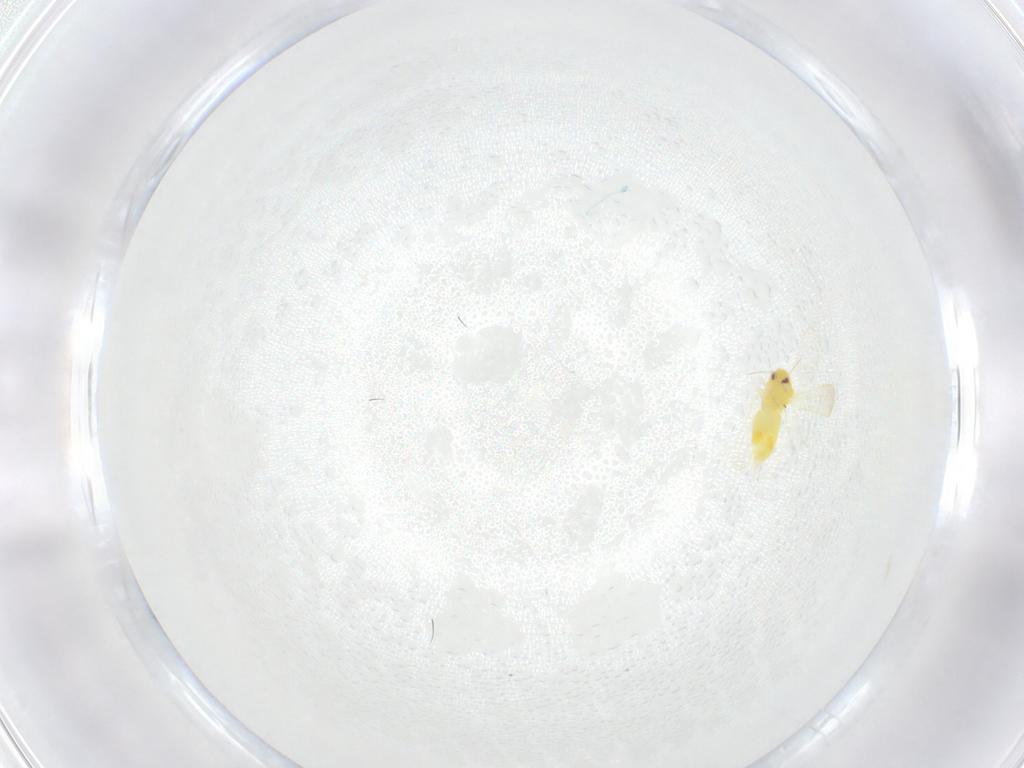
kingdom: Animalia
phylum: Arthropoda
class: Insecta
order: Hemiptera
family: Aleyrodidae
